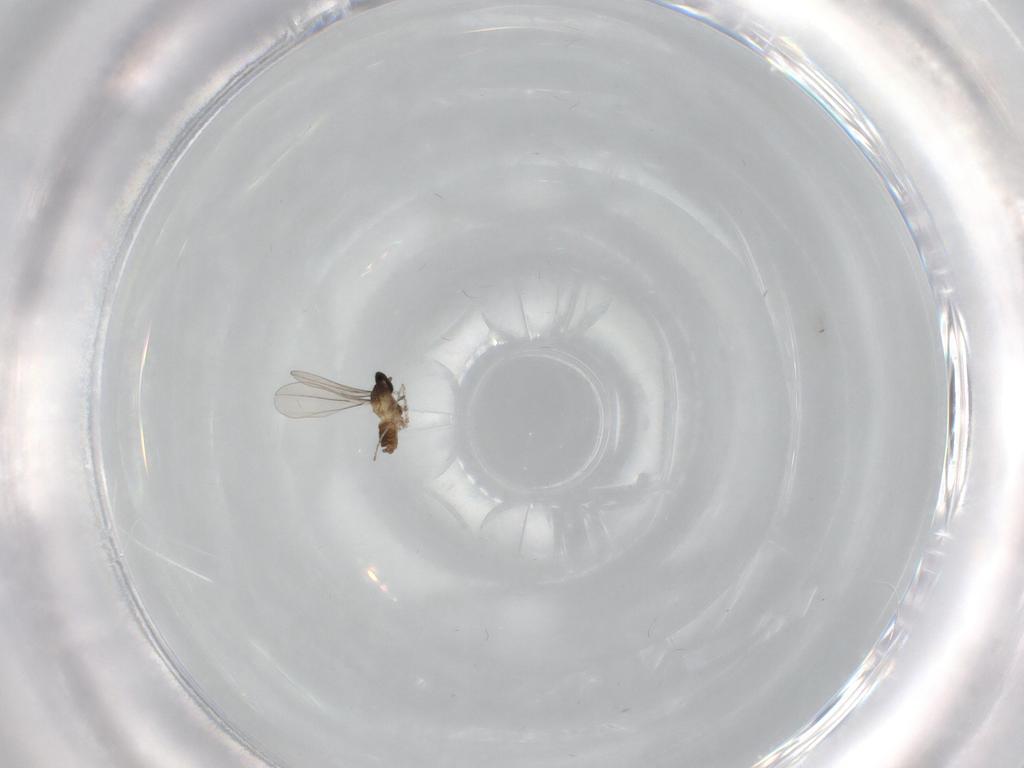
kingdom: Animalia
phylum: Arthropoda
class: Insecta
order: Diptera
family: Cecidomyiidae
